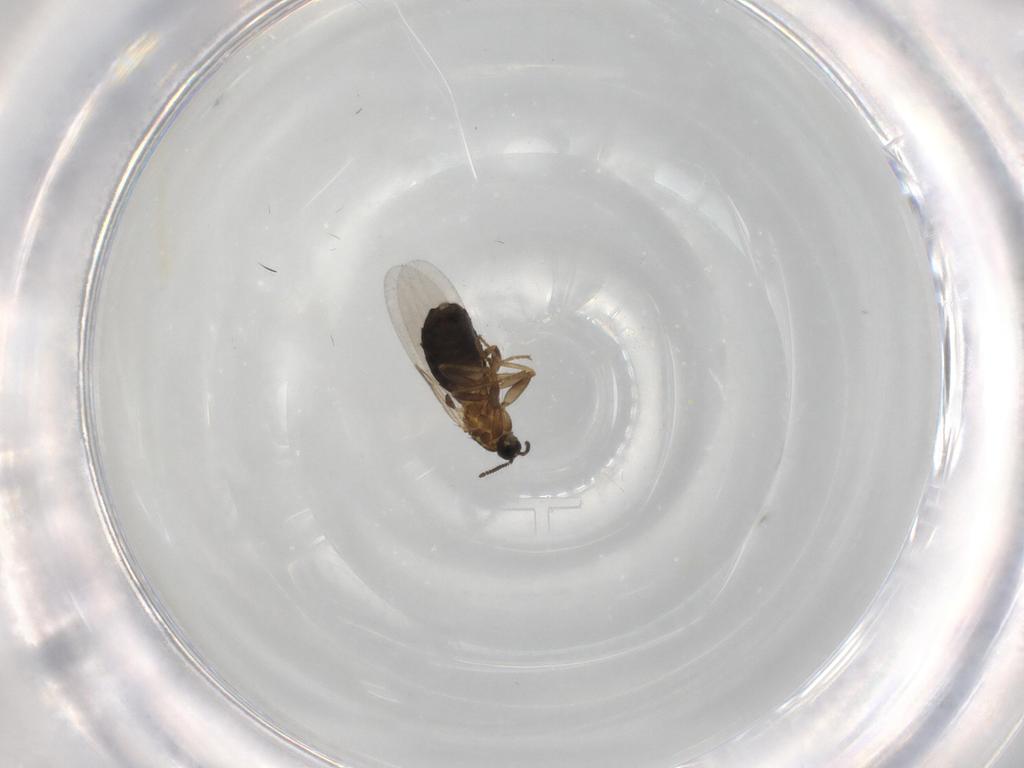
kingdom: Animalia
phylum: Arthropoda
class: Insecta
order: Diptera
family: Scatopsidae
